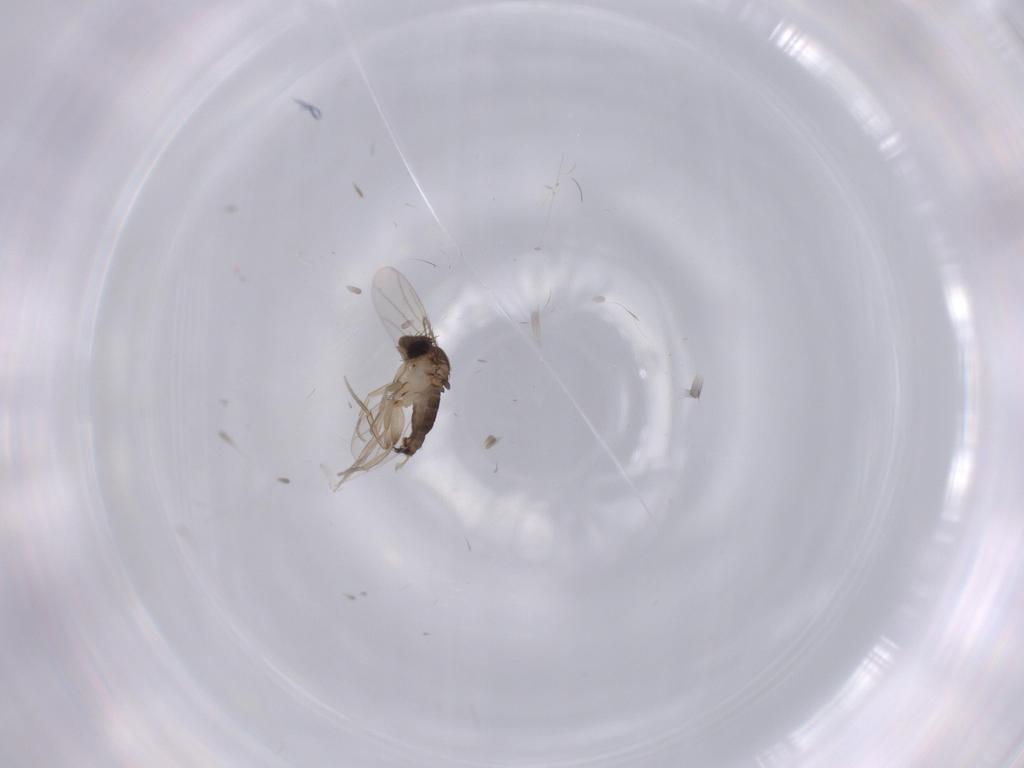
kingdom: Animalia
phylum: Arthropoda
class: Insecta
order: Diptera
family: Phoridae
